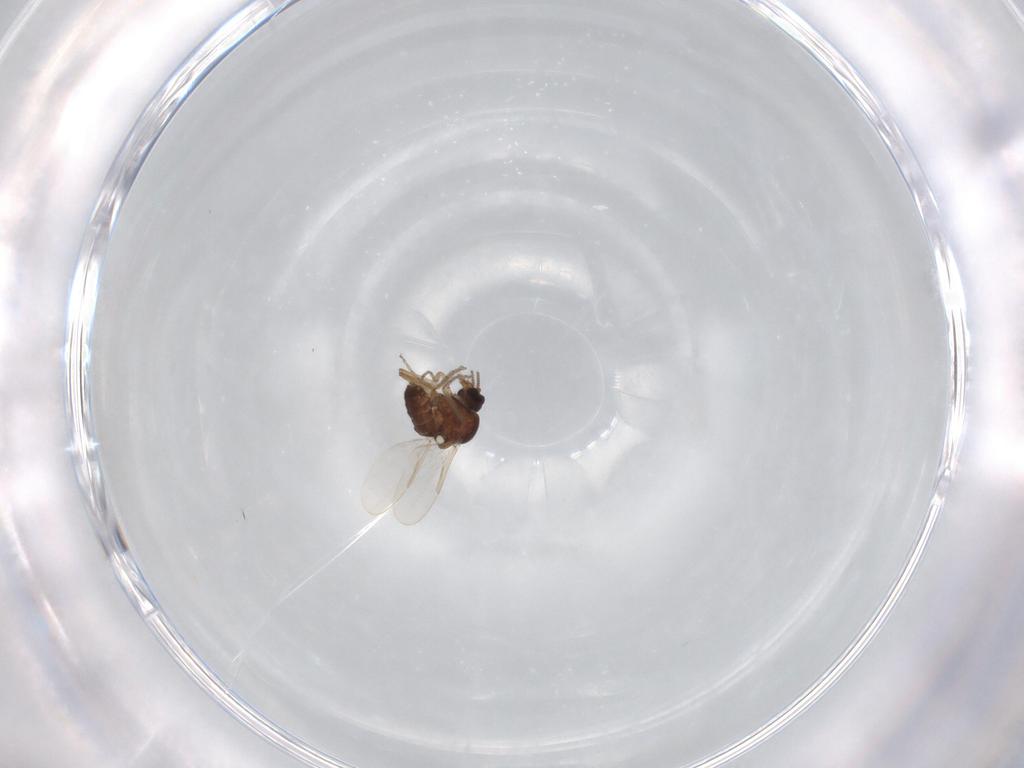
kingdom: Animalia
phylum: Arthropoda
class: Insecta
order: Diptera
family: Ceratopogonidae
